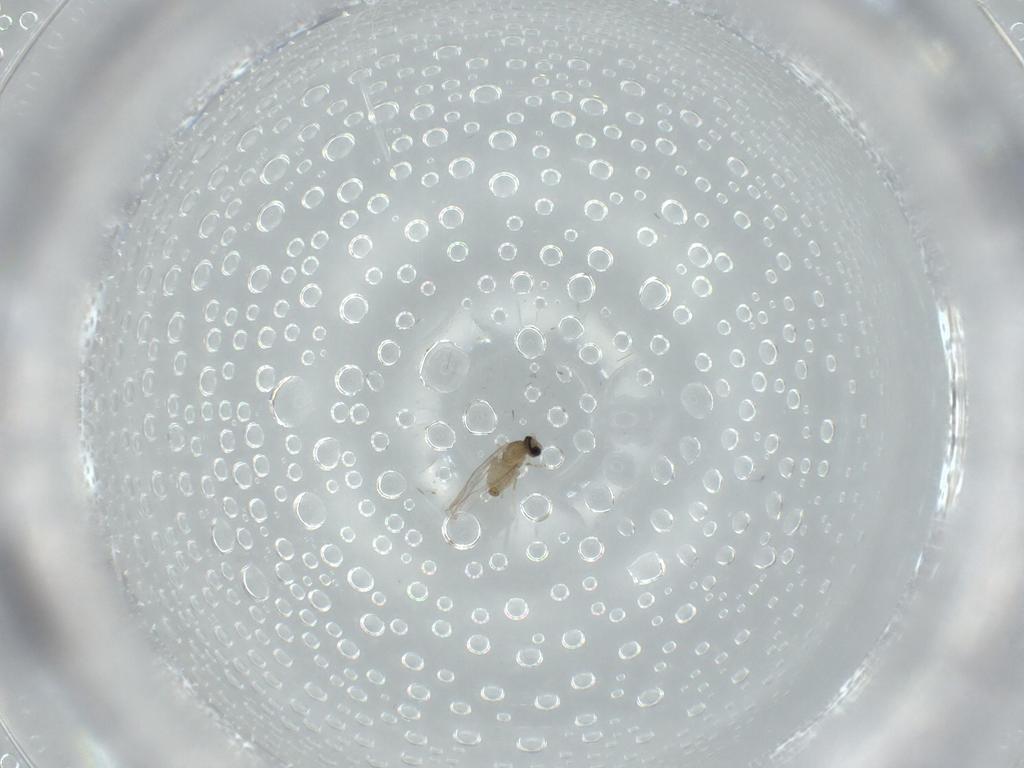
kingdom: Animalia
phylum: Arthropoda
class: Insecta
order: Diptera
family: Cecidomyiidae
